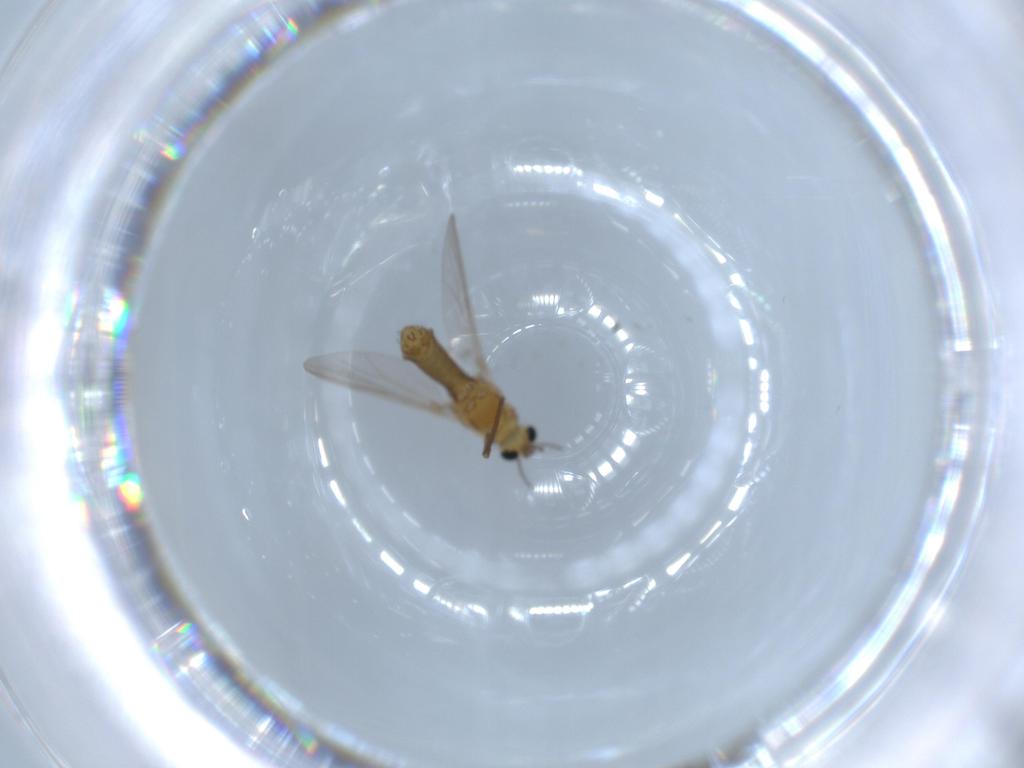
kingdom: Animalia
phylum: Arthropoda
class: Insecta
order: Diptera
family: Chironomidae
